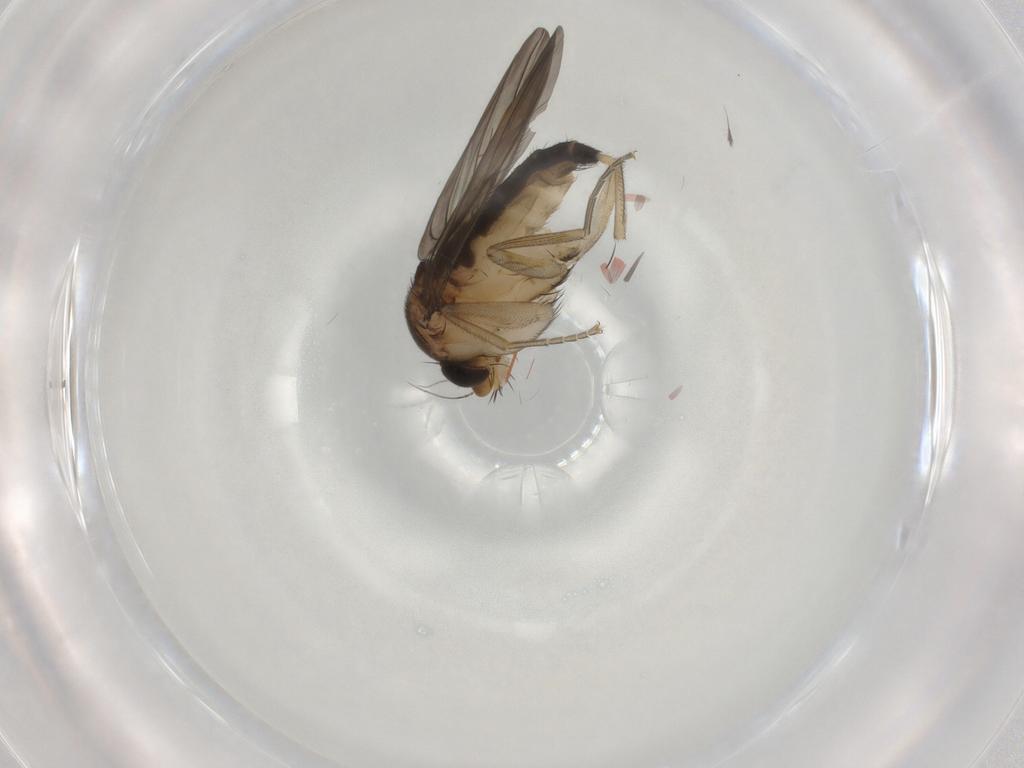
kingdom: Animalia
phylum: Arthropoda
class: Insecta
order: Diptera
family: Phoridae
